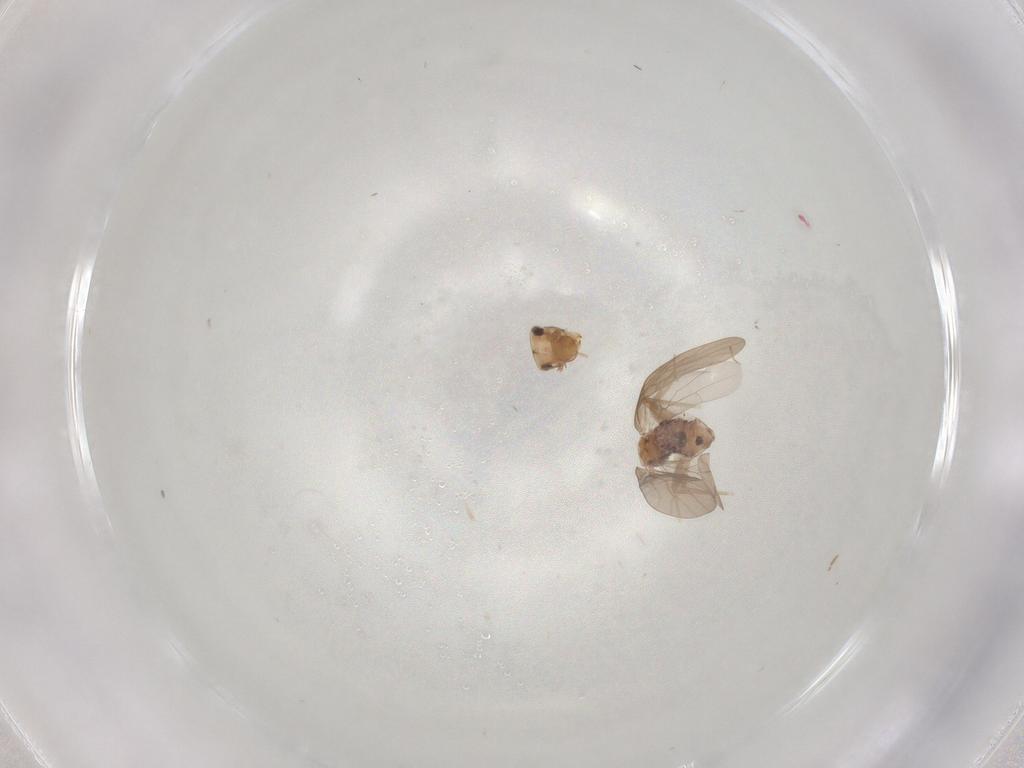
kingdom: Animalia
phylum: Arthropoda
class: Insecta
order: Psocodea
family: Lepidopsocidae
